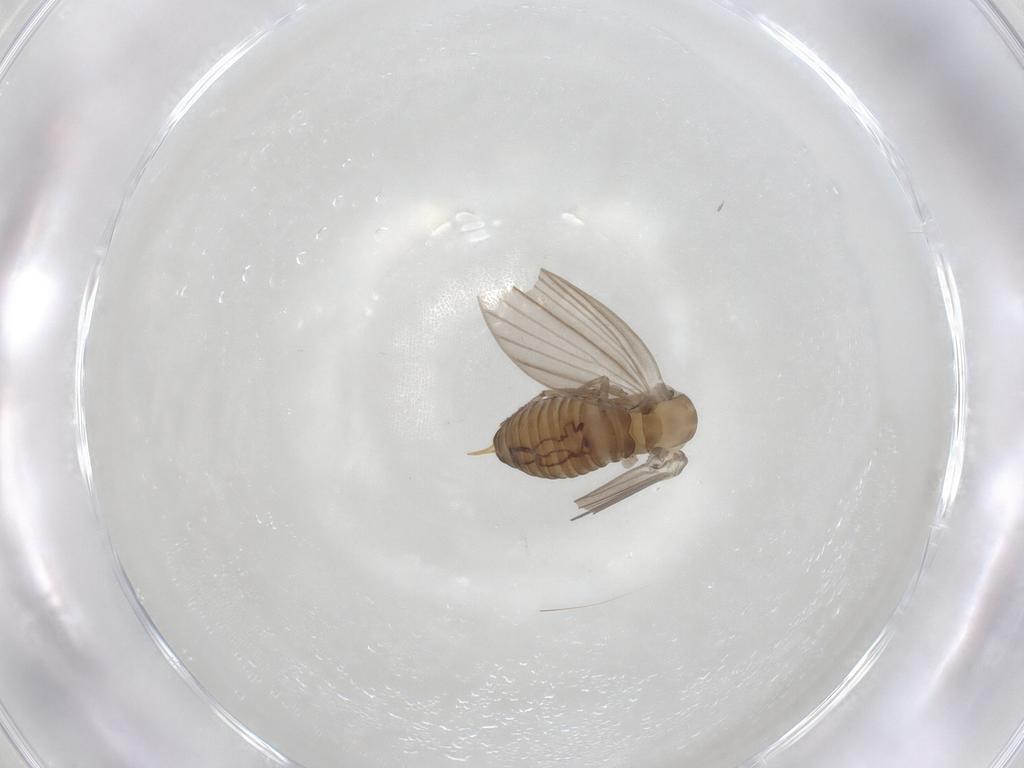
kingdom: Animalia
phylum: Arthropoda
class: Insecta
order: Diptera
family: Psychodidae
